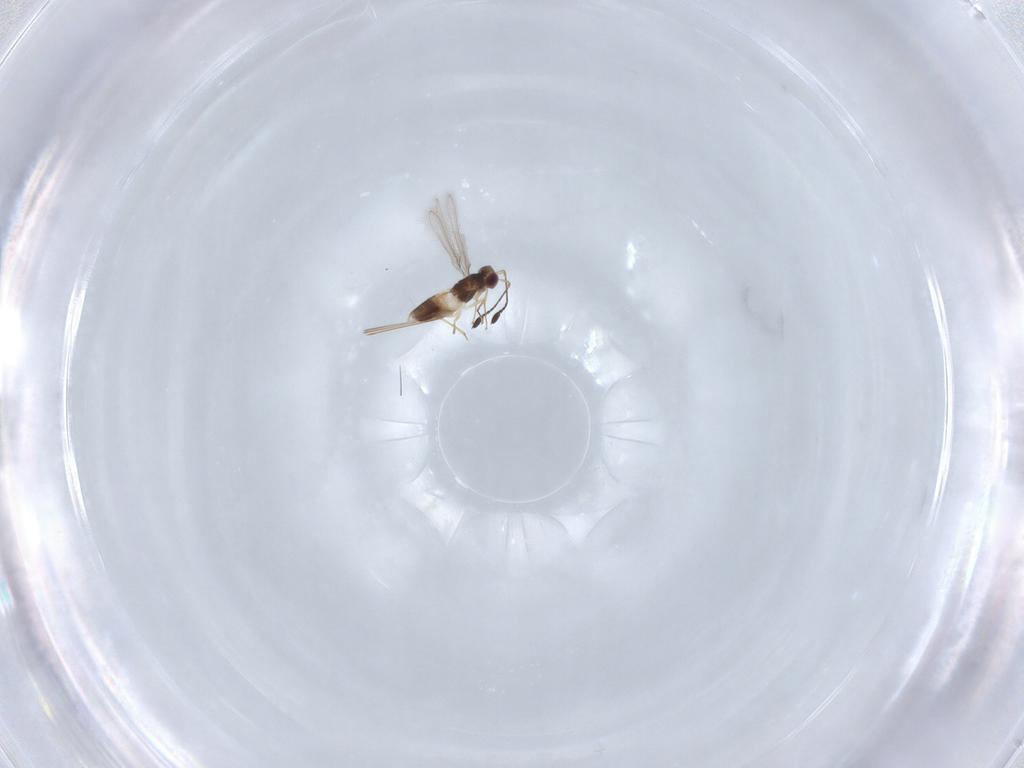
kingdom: Animalia
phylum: Arthropoda
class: Insecta
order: Hymenoptera
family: Mymaridae
